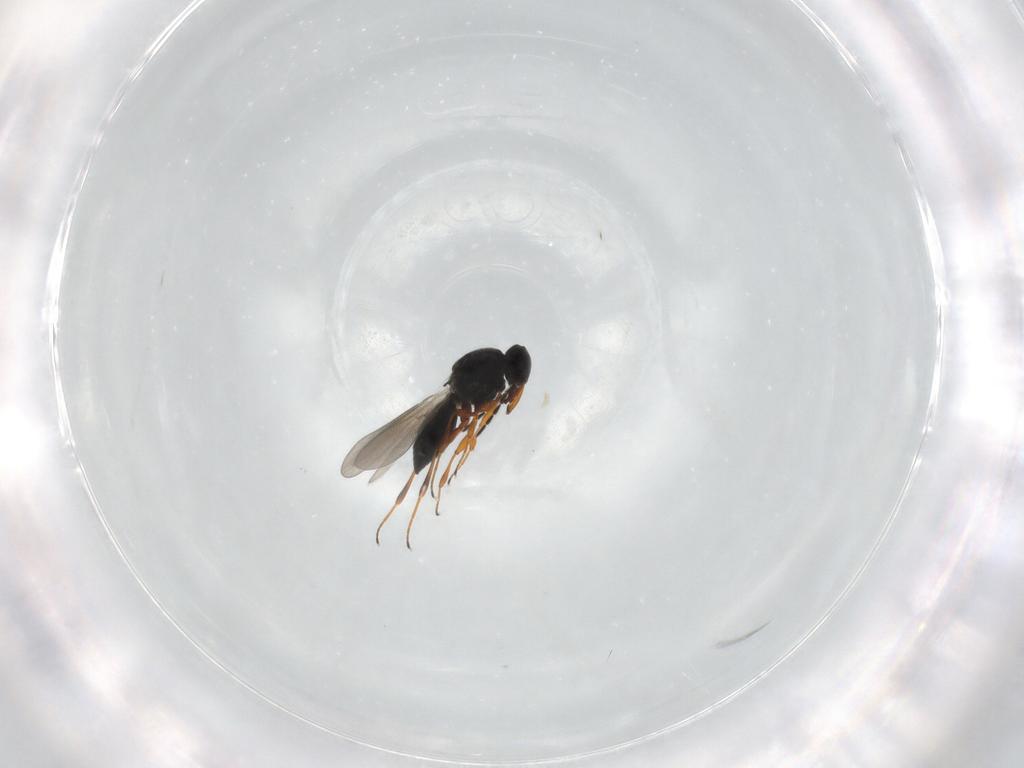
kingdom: Animalia
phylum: Arthropoda
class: Insecta
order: Hymenoptera
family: Platygastridae
